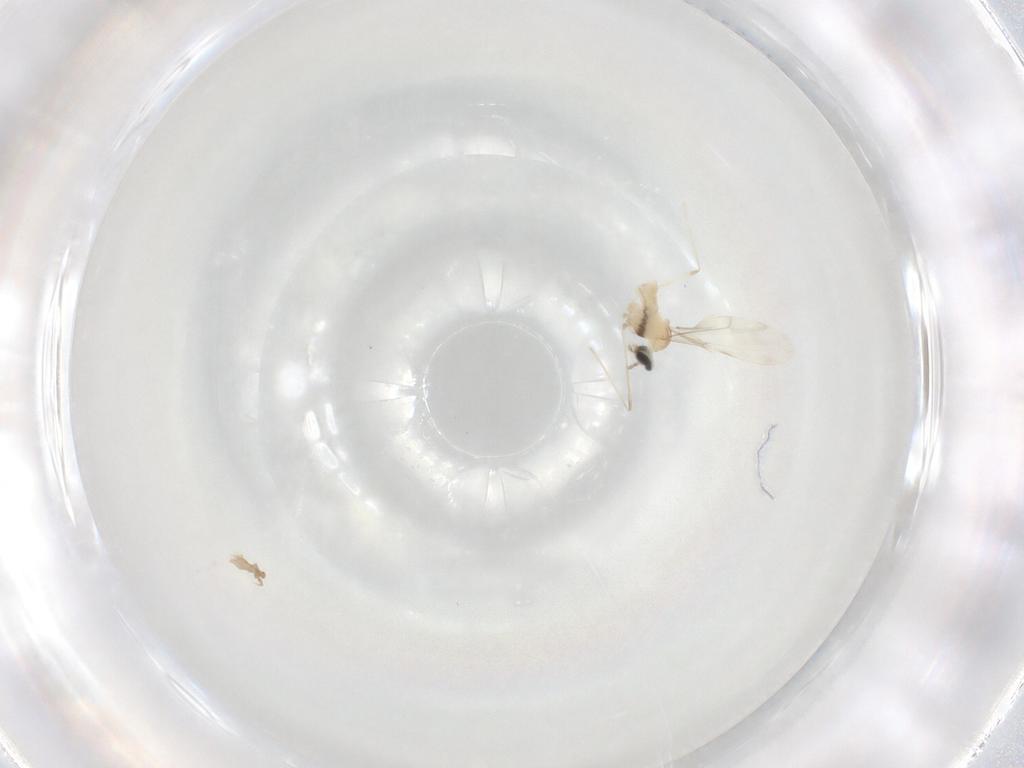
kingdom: Animalia
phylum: Arthropoda
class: Insecta
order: Diptera
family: Cecidomyiidae
